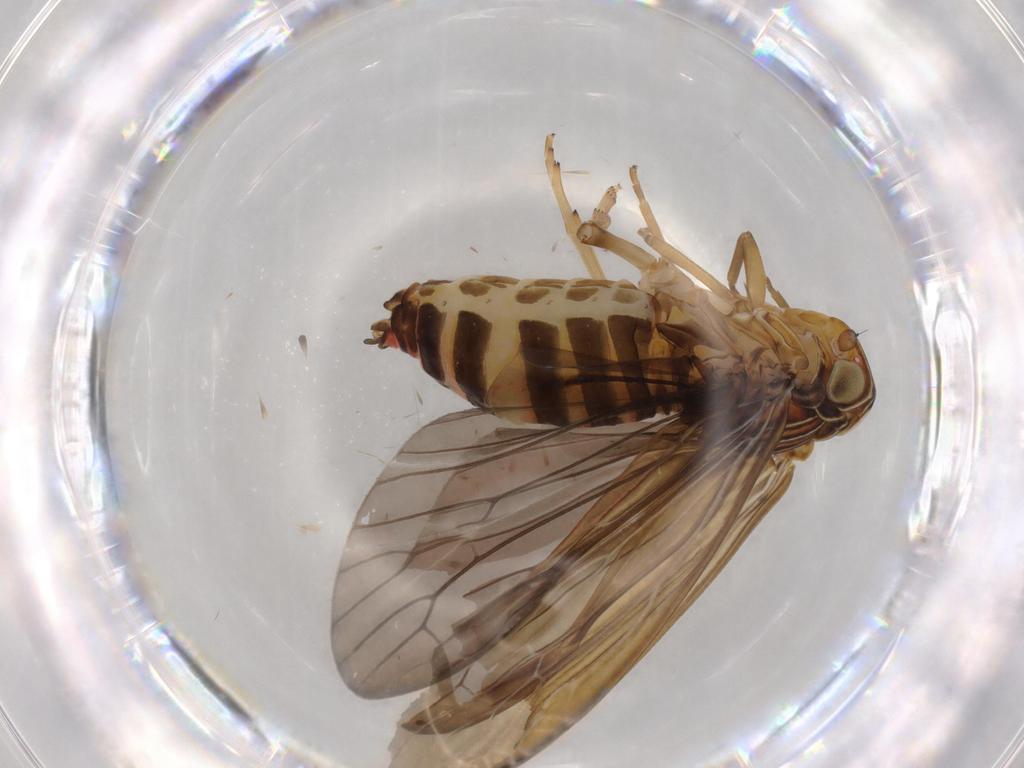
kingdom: Animalia
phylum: Arthropoda
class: Insecta
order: Hemiptera
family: Achilidae
